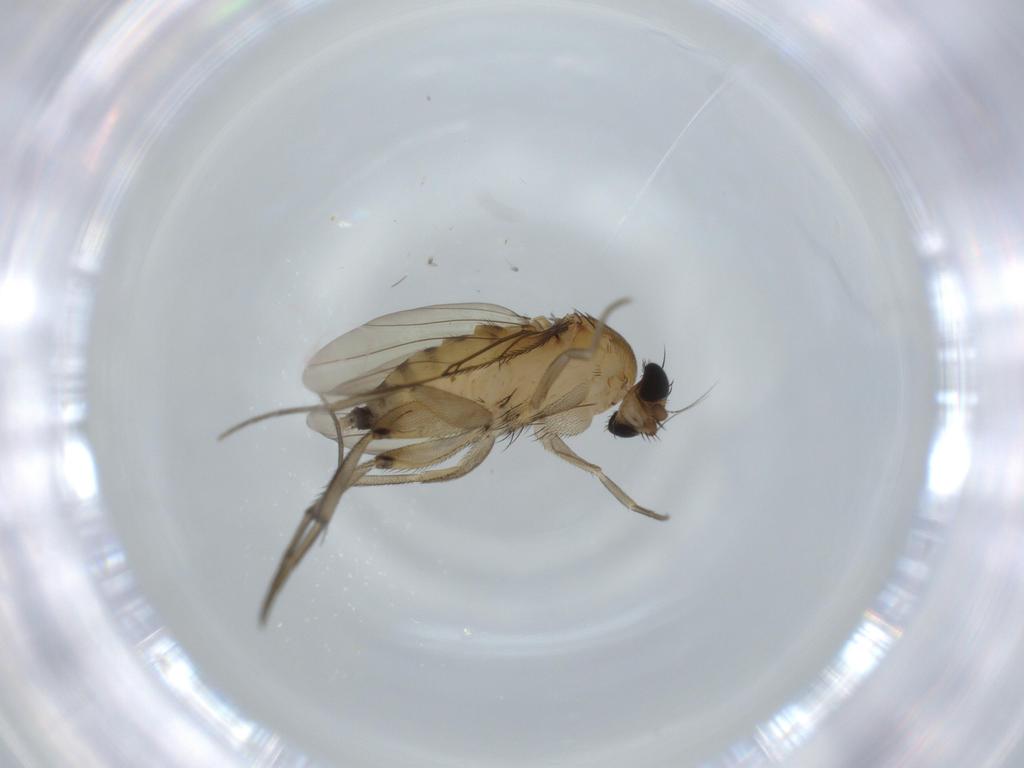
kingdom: Animalia
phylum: Arthropoda
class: Insecta
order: Diptera
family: Phoridae
